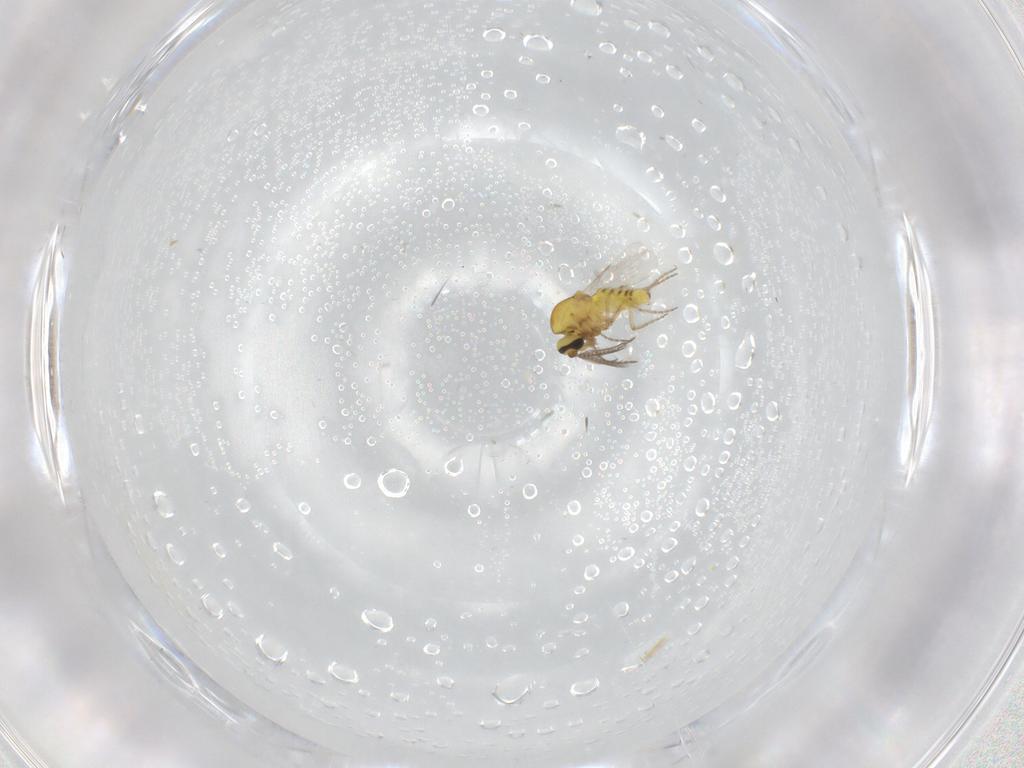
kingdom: Animalia
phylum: Arthropoda
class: Insecta
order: Diptera
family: Ceratopogonidae
